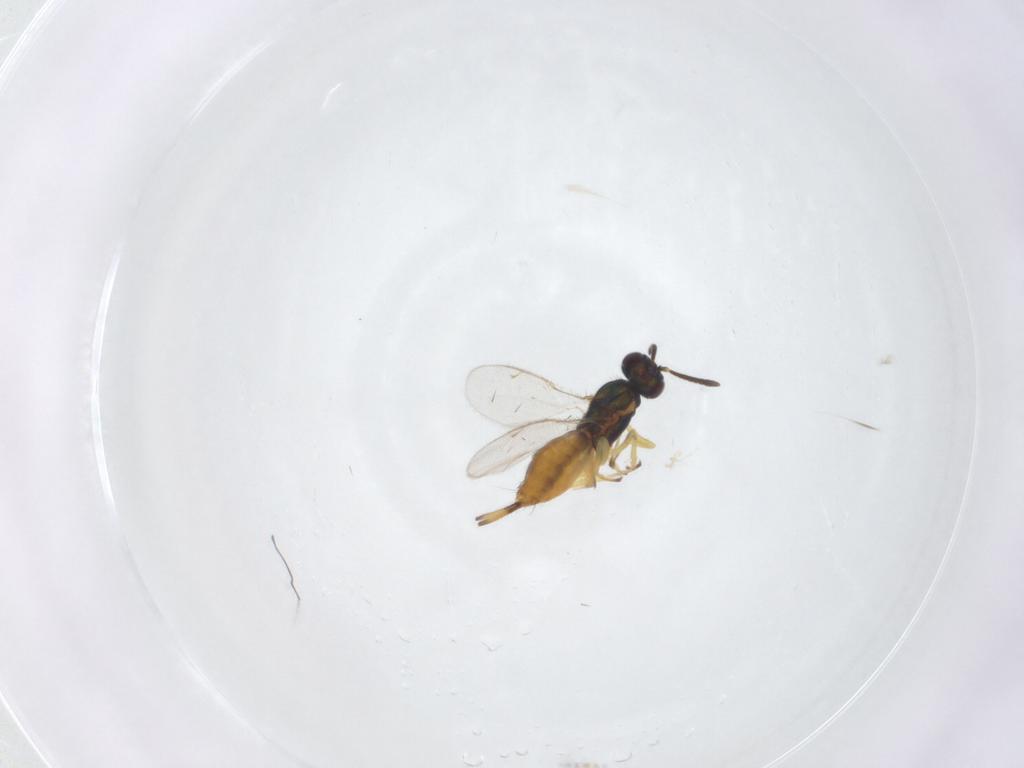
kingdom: Animalia
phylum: Arthropoda
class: Insecta
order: Hymenoptera
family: Eupelmidae
